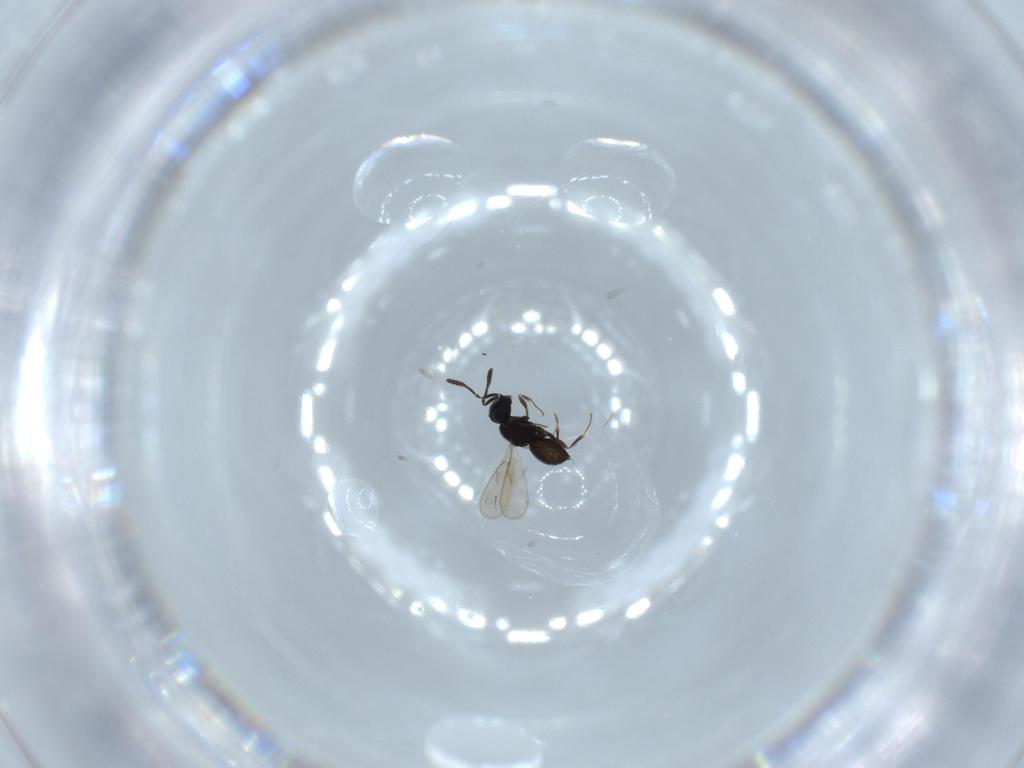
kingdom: Animalia
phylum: Arthropoda
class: Insecta
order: Hymenoptera
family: Scelionidae
